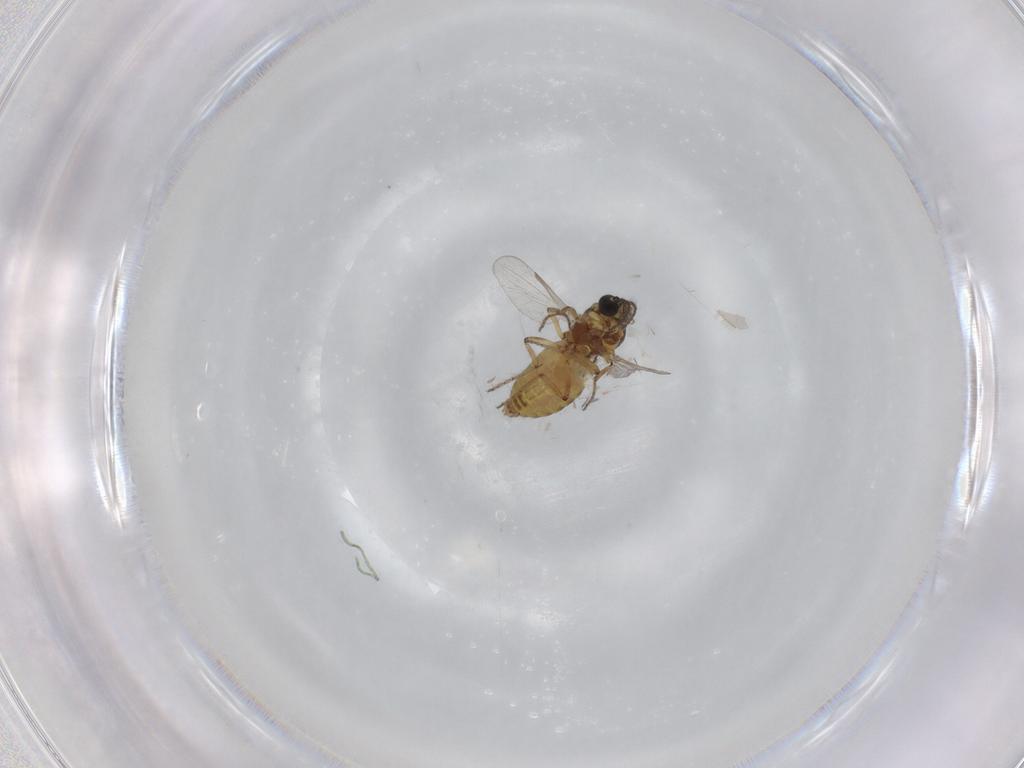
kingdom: Animalia
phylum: Arthropoda
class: Insecta
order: Diptera
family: Ceratopogonidae
